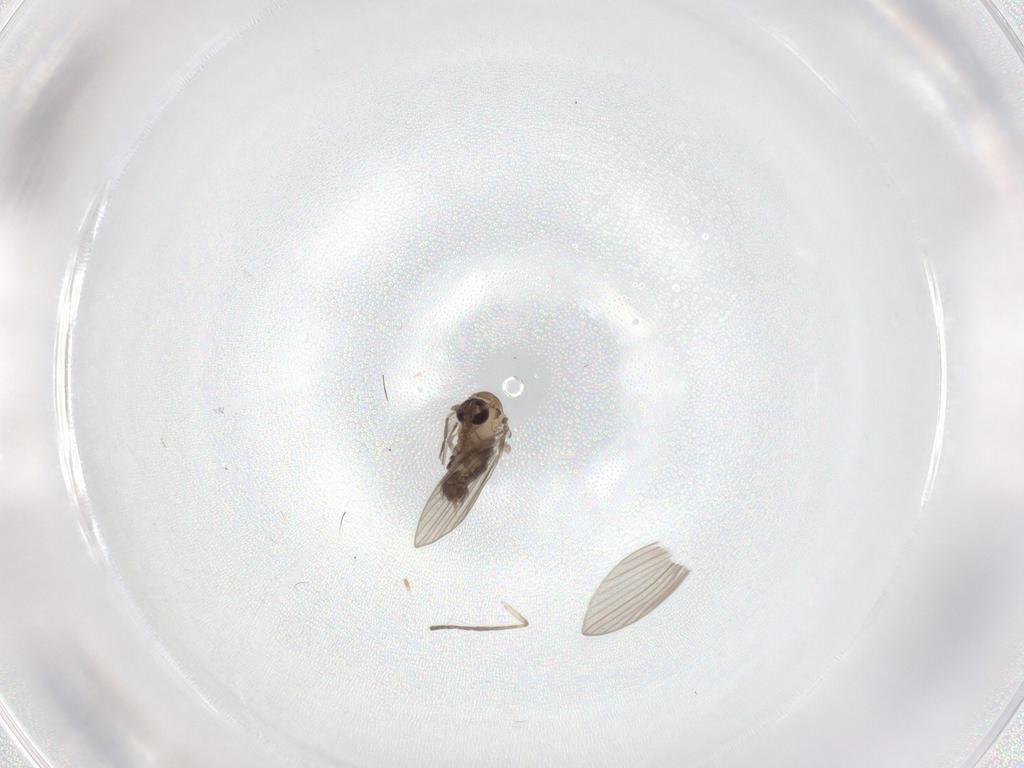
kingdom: Animalia
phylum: Arthropoda
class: Insecta
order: Diptera
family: Psychodidae
